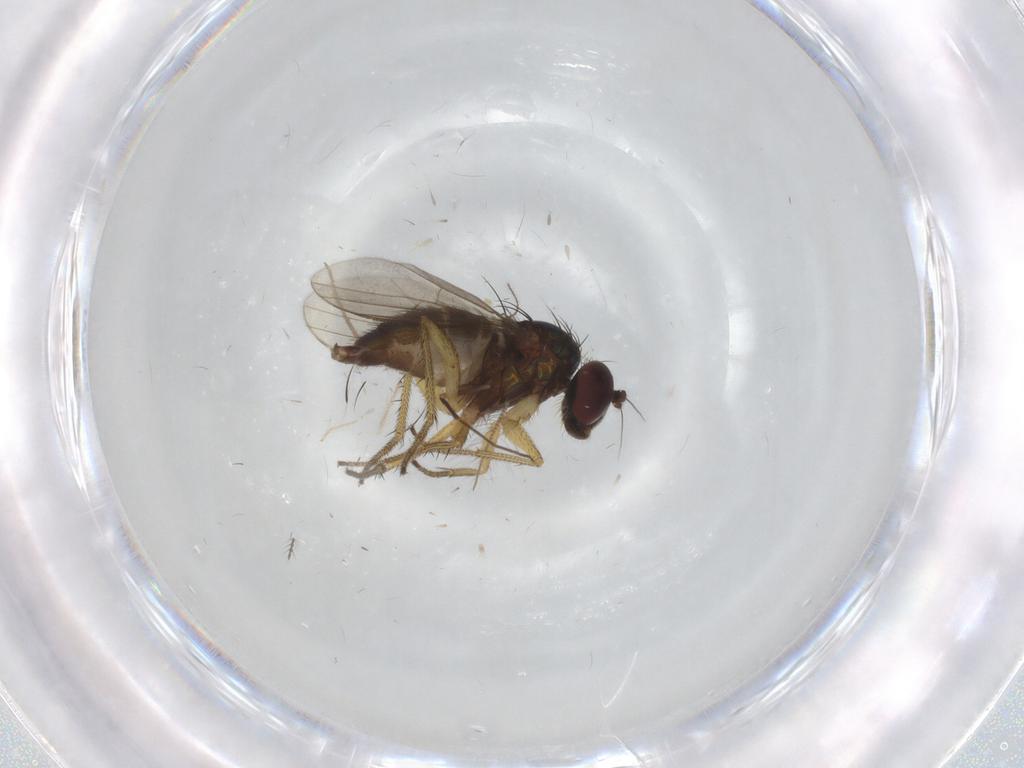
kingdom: Animalia
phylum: Arthropoda
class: Insecta
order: Diptera
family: Chironomidae
